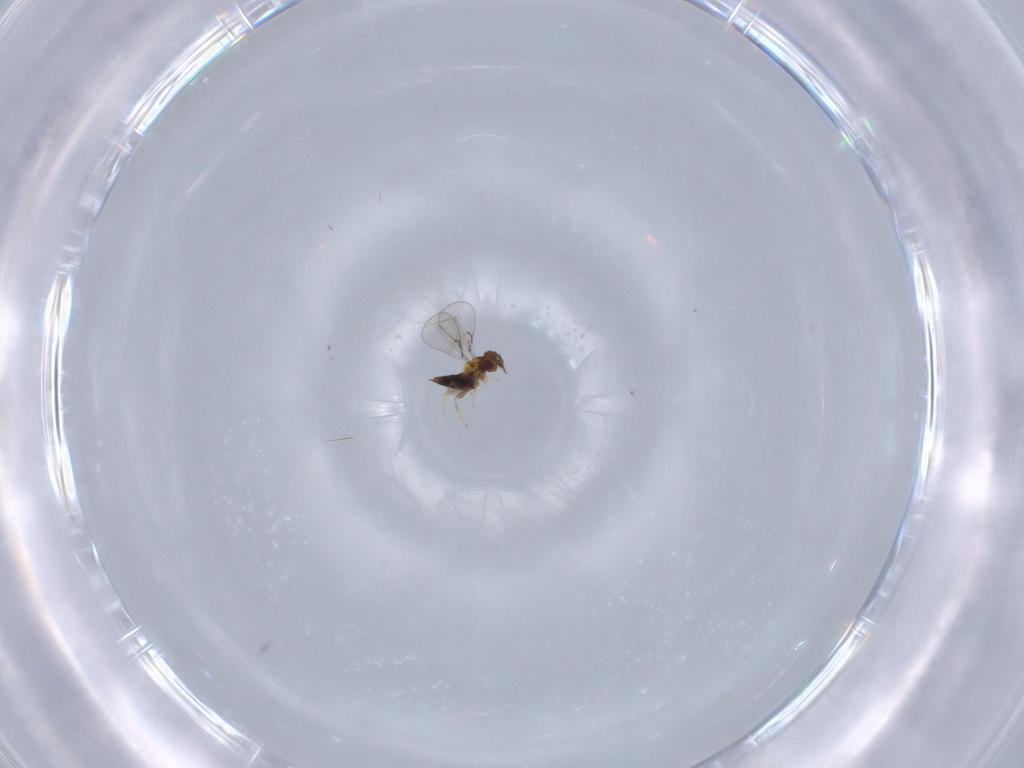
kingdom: Animalia
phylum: Arthropoda
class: Insecta
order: Hymenoptera
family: Trichogrammatidae
